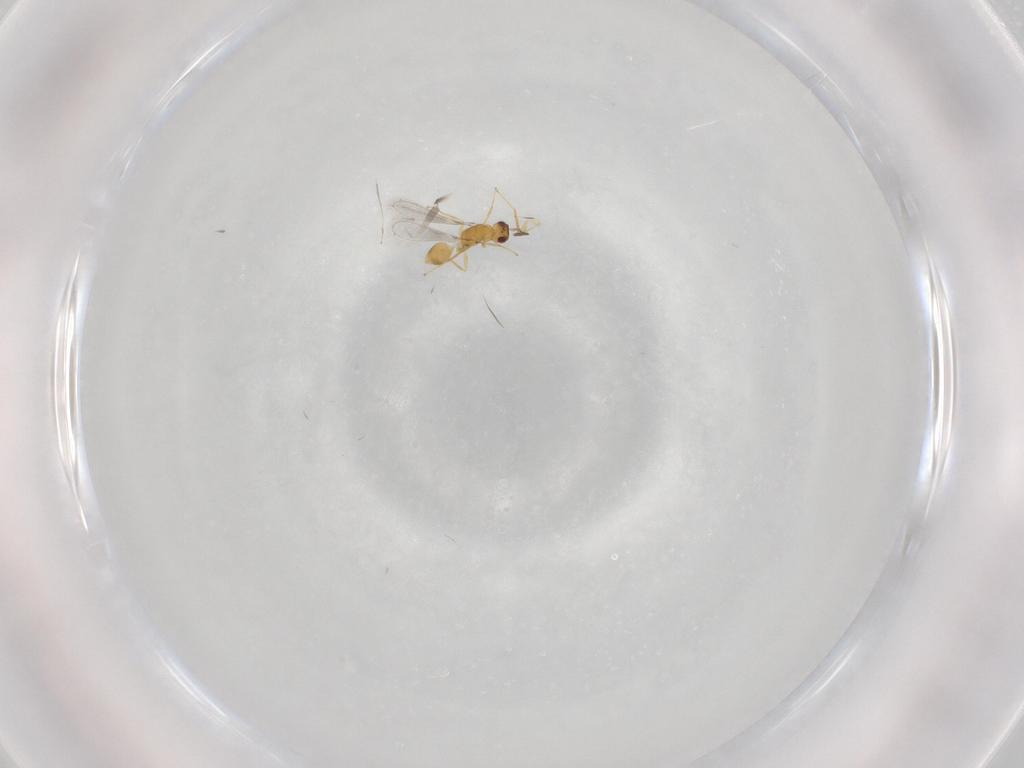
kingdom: Animalia
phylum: Arthropoda
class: Insecta
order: Hymenoptera
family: Mymaridae
